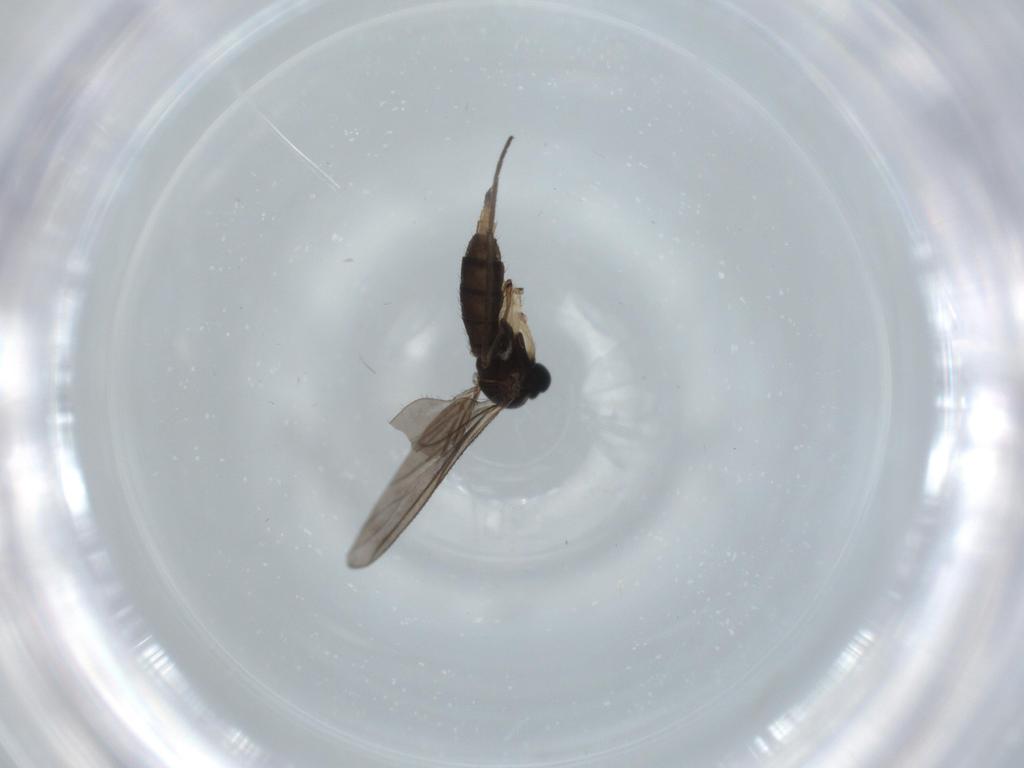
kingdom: Animalia
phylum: Arthropoda
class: Insecta
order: Diptera
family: Sciaridae
